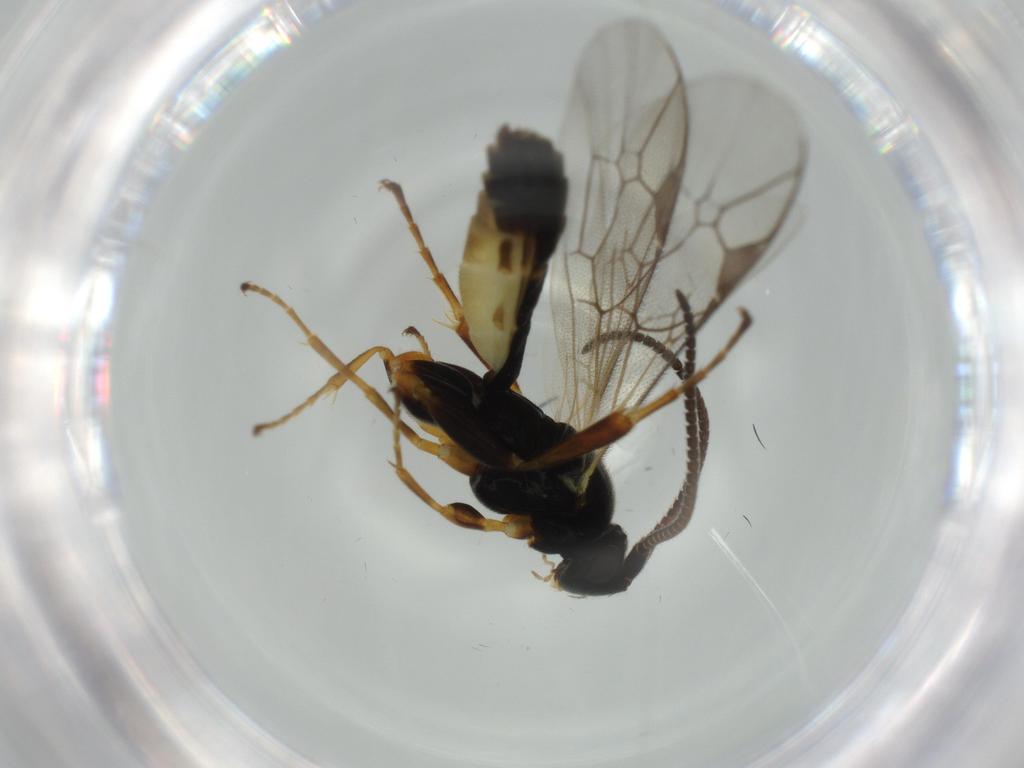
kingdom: Animalia
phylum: Arthropoda
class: Insecta
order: Hymenoptera
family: Ichneumonidae
